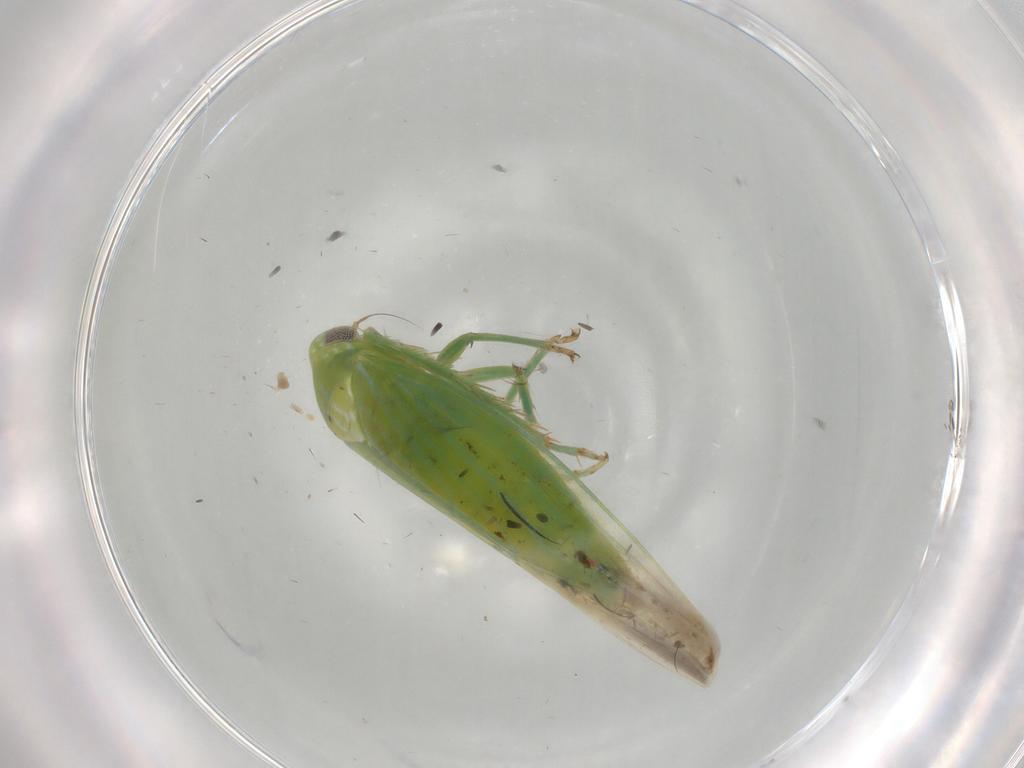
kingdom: Animalia
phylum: Arthropoda
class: Insecta
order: Hemiptera
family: Cicadellidae
